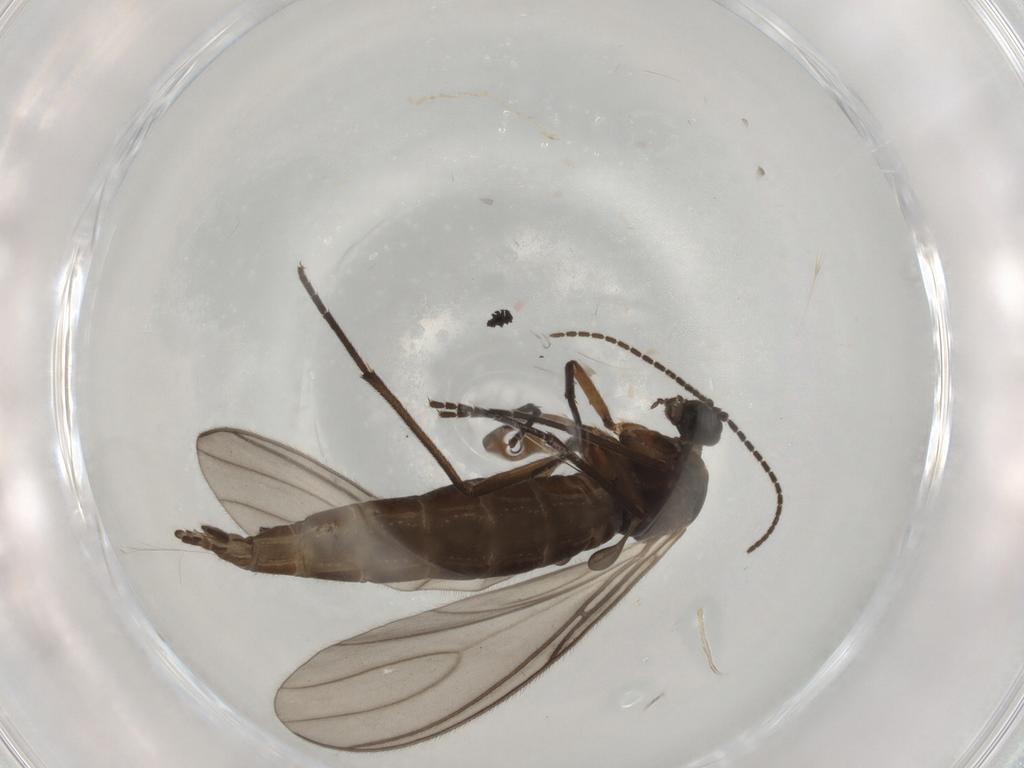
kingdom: Animalia
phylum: Arthropoda
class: Insecta
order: Diptera
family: Sciaridae
